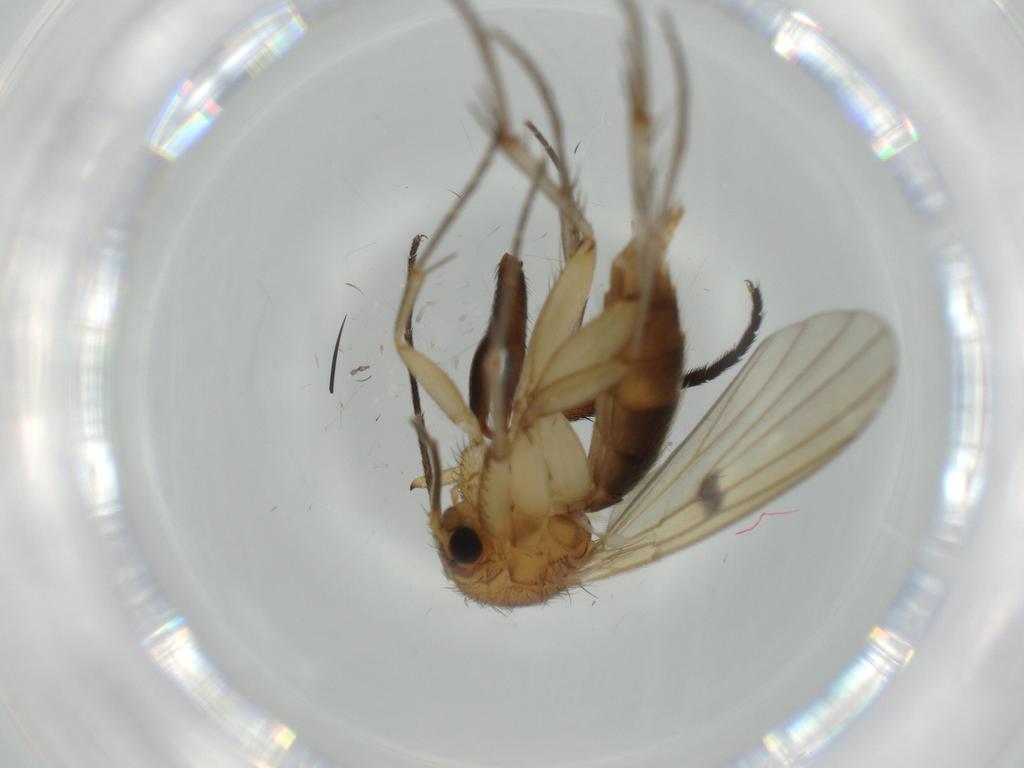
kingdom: Animalia
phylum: Arthropoda
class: Insecta
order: Diptera
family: Chironomidae
